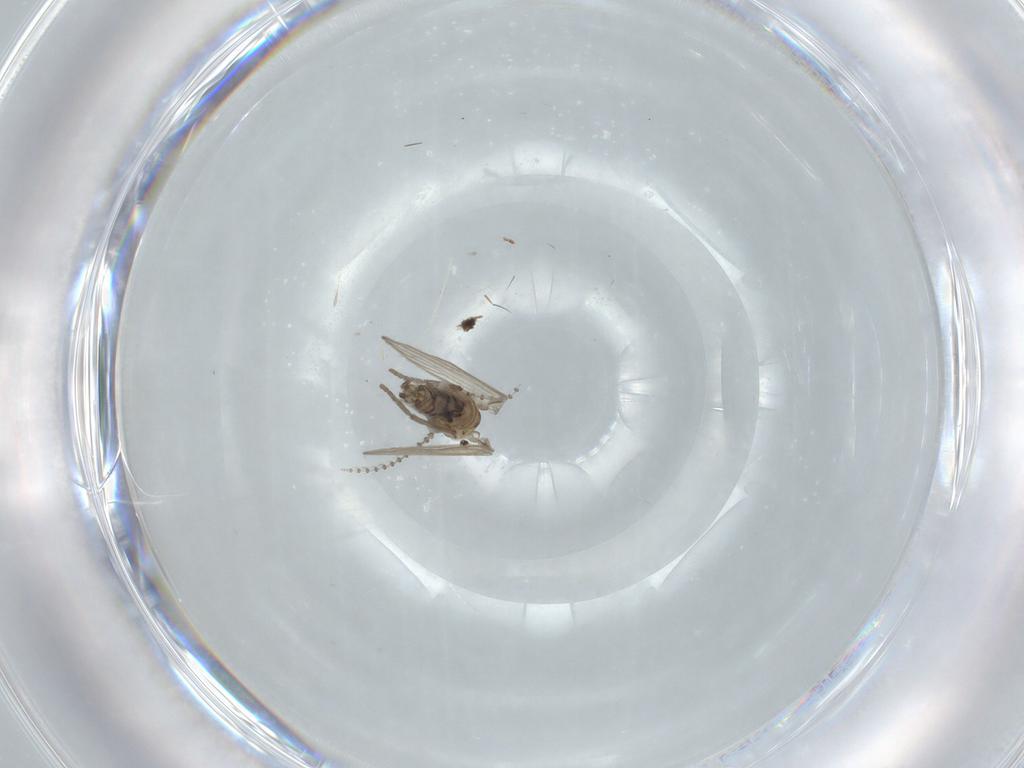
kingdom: Animalia
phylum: Arthropoda
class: Insecta
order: Diptera
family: Psychodidae
